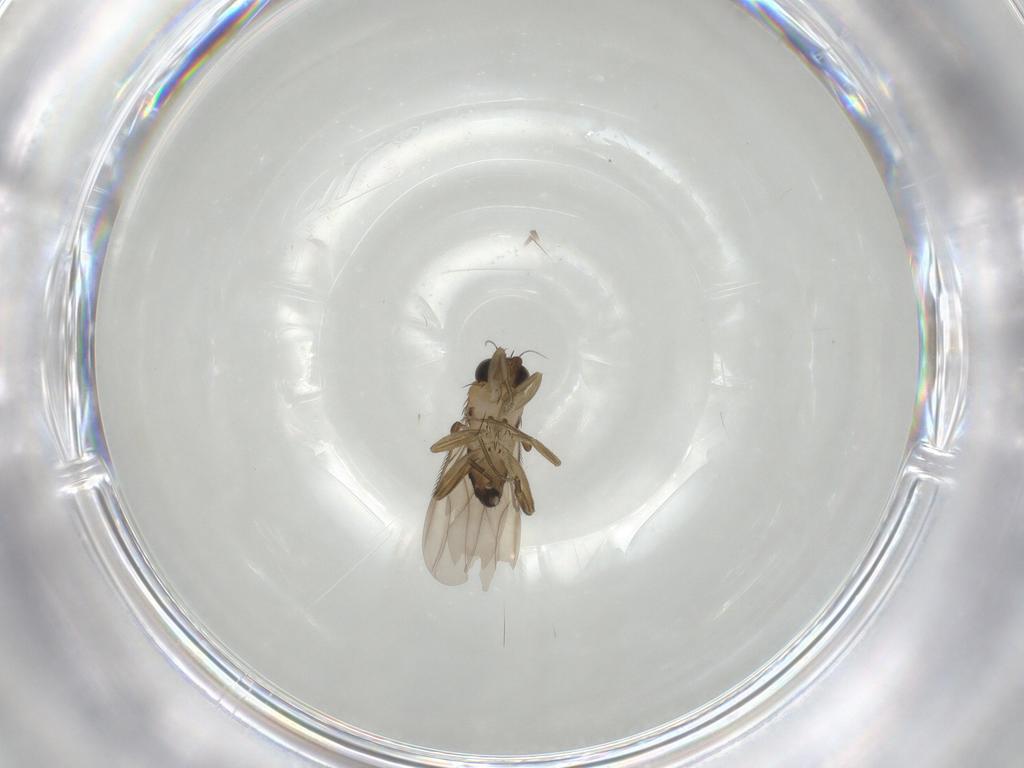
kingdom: Animalia
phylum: Arthropoda
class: Insecta
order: Diptera
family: Phoridae
